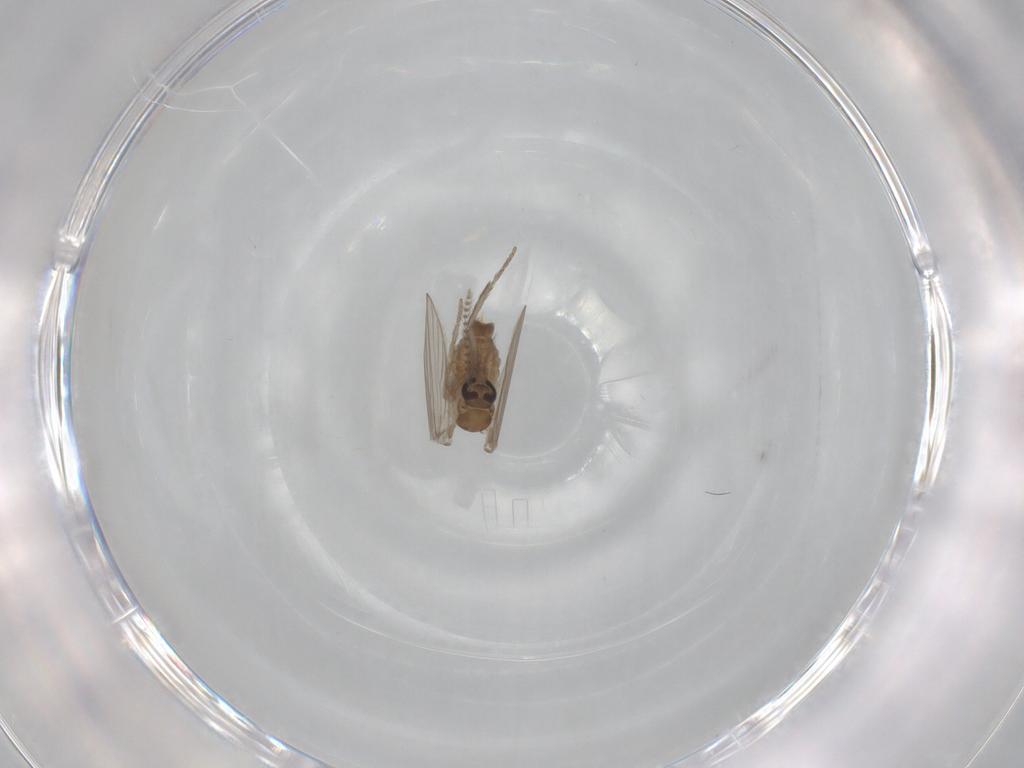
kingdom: Animalia
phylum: Arthropoda
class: Insecta
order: Diptera
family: Psychodidae
